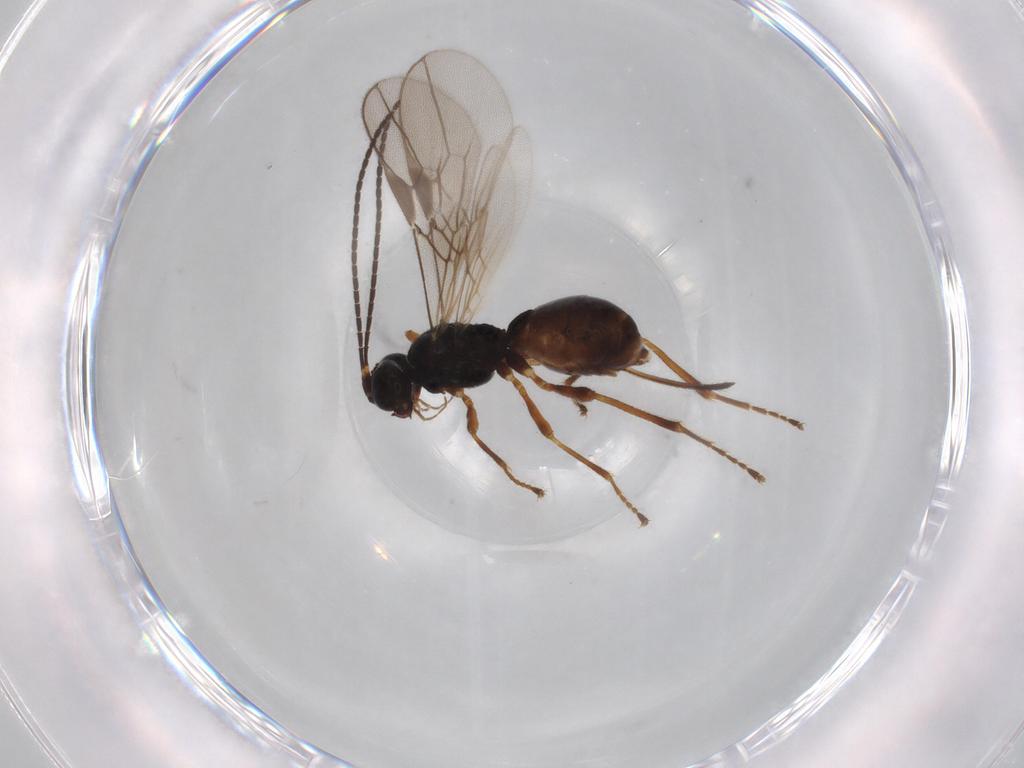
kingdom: Animalia
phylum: Arthropoda
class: Insecta
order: Hymenoptera
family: Braconidae
